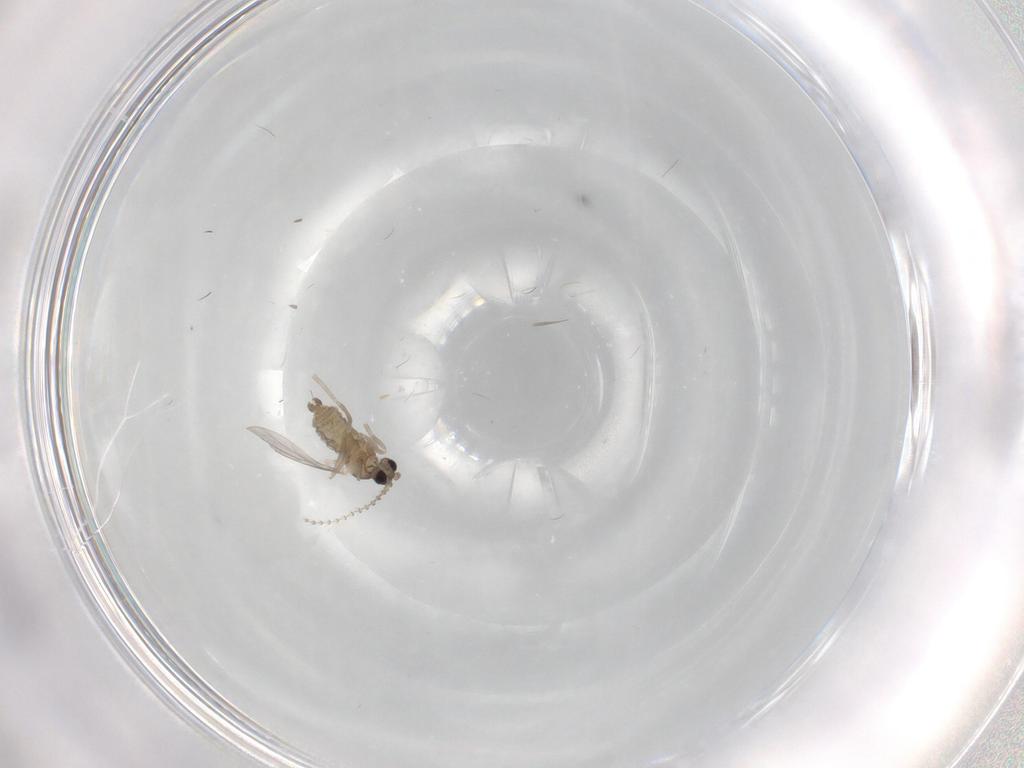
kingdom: Animalia
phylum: Arthropoda
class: Insecta
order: Diptera
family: Cecidomyiidae
